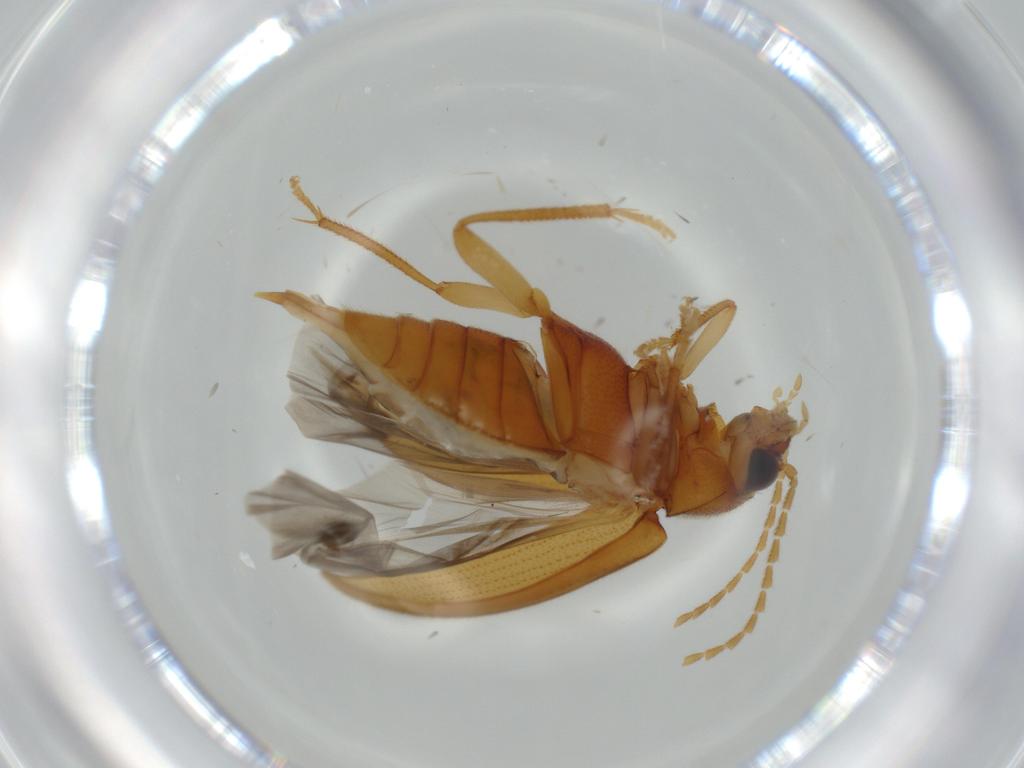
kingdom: Animalia
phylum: Arthropoda
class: Insecta
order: Coleoptera
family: Ptilodactylidae
